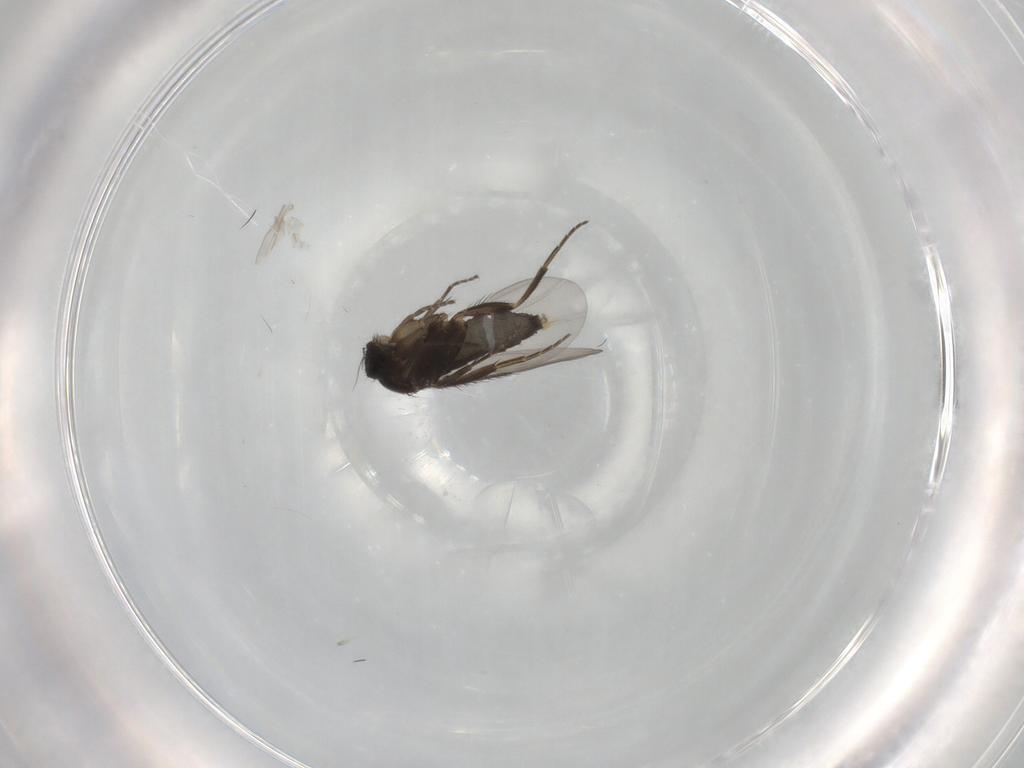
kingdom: Animalia
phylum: Arthropoda
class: Insecta
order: Diptera
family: Phoridae
